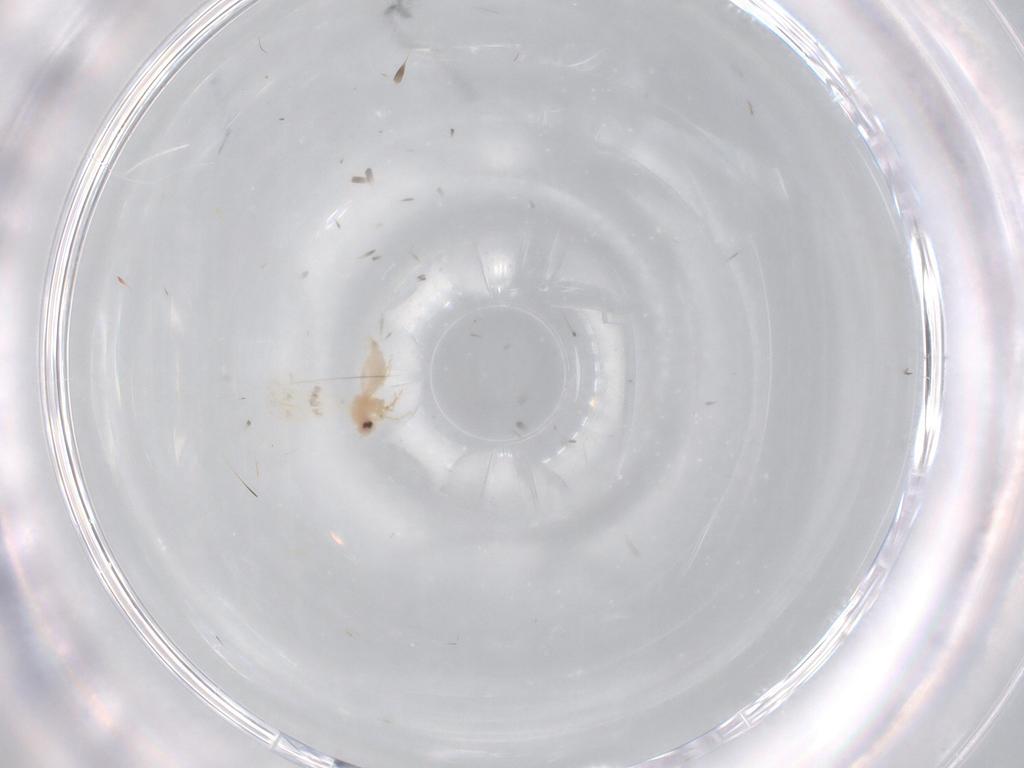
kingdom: Animalia
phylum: Arthropoda
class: Insecta
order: Hemiptera
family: Aleyrodidae
